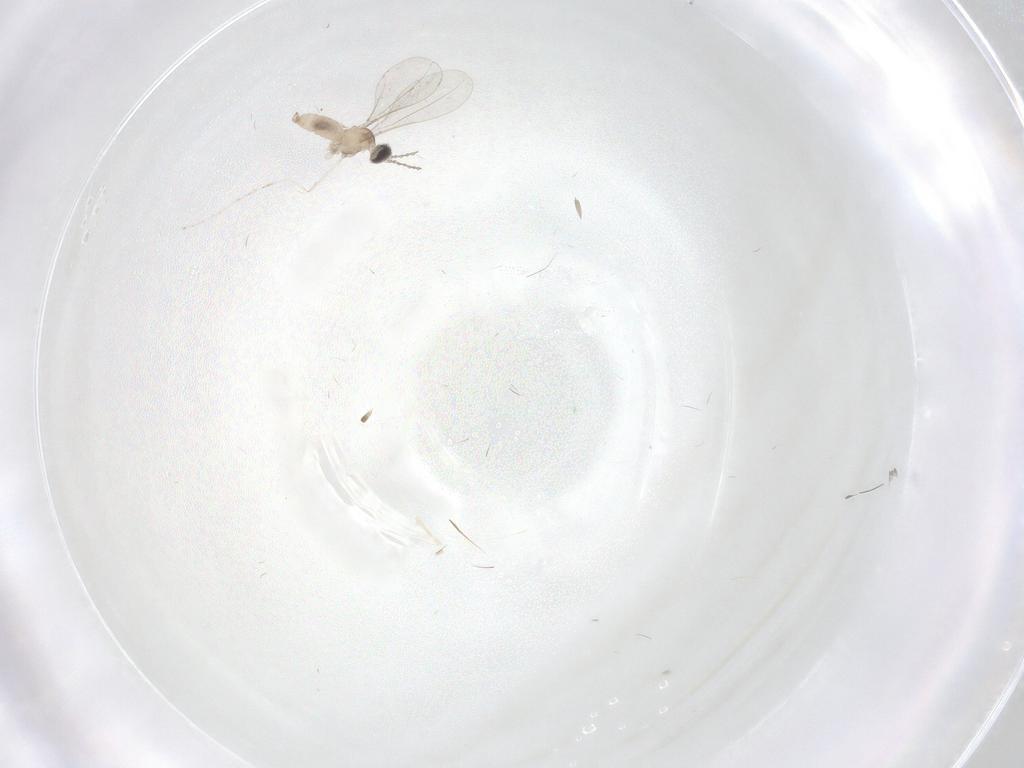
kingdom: Animalia
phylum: Arthropoda
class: Insecta
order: Diptera
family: Cecidomyiidae
